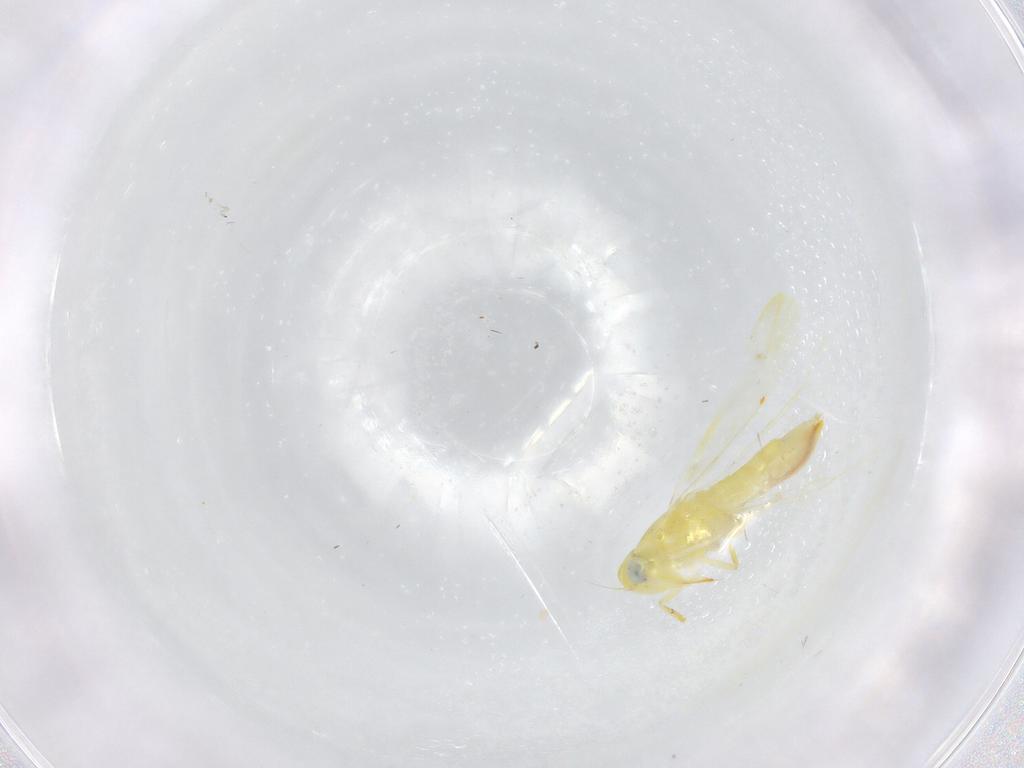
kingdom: Animalia
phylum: Arthropoda
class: Insecta
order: Hemiptera
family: Cicadellidae
